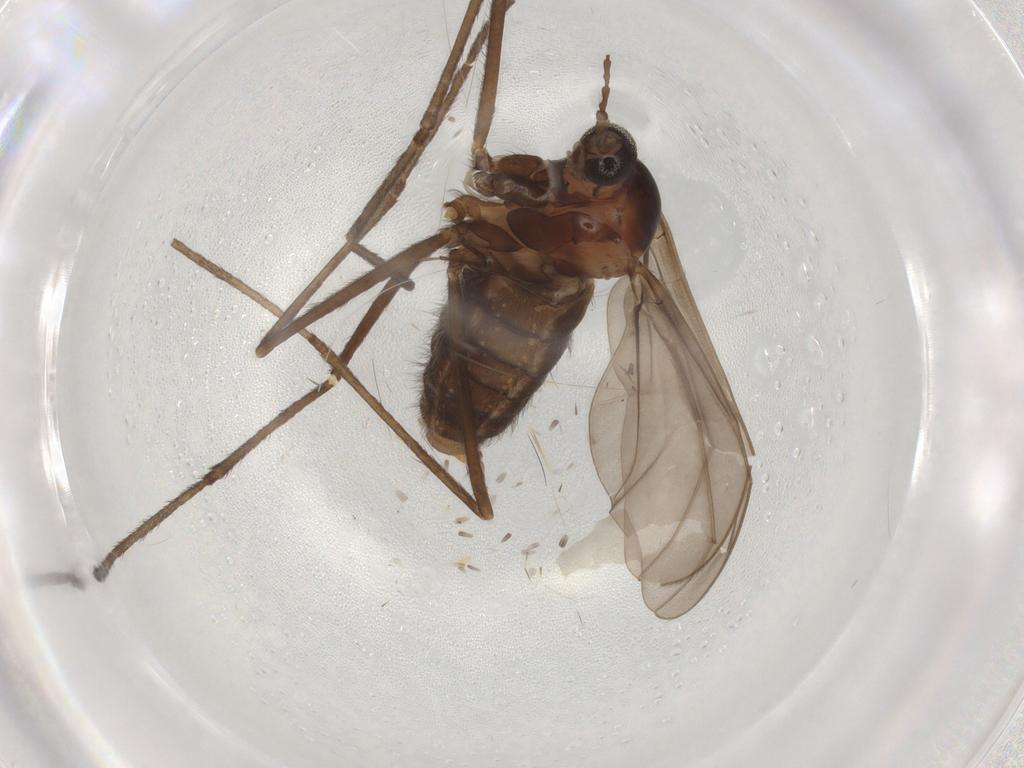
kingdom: Animalia
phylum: Arthropoda
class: Insecta
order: Diptera
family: Cecidomyiidae
